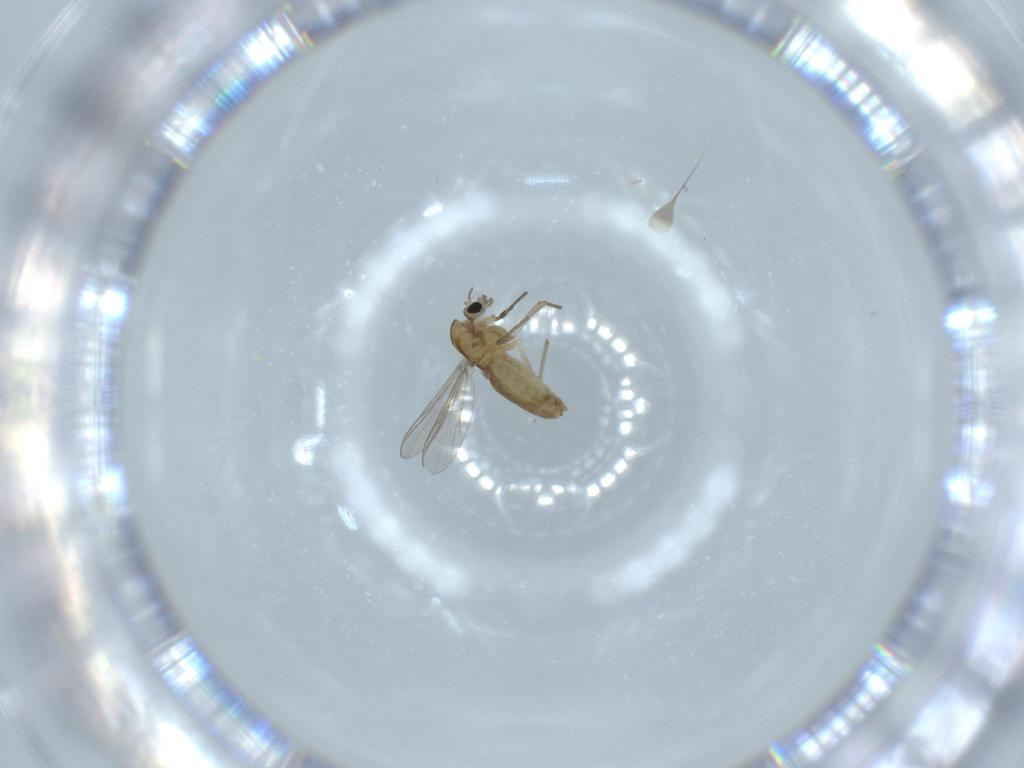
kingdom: Animalia
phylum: Arthropoda
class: Insecta
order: Diptera
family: Chironomidae
